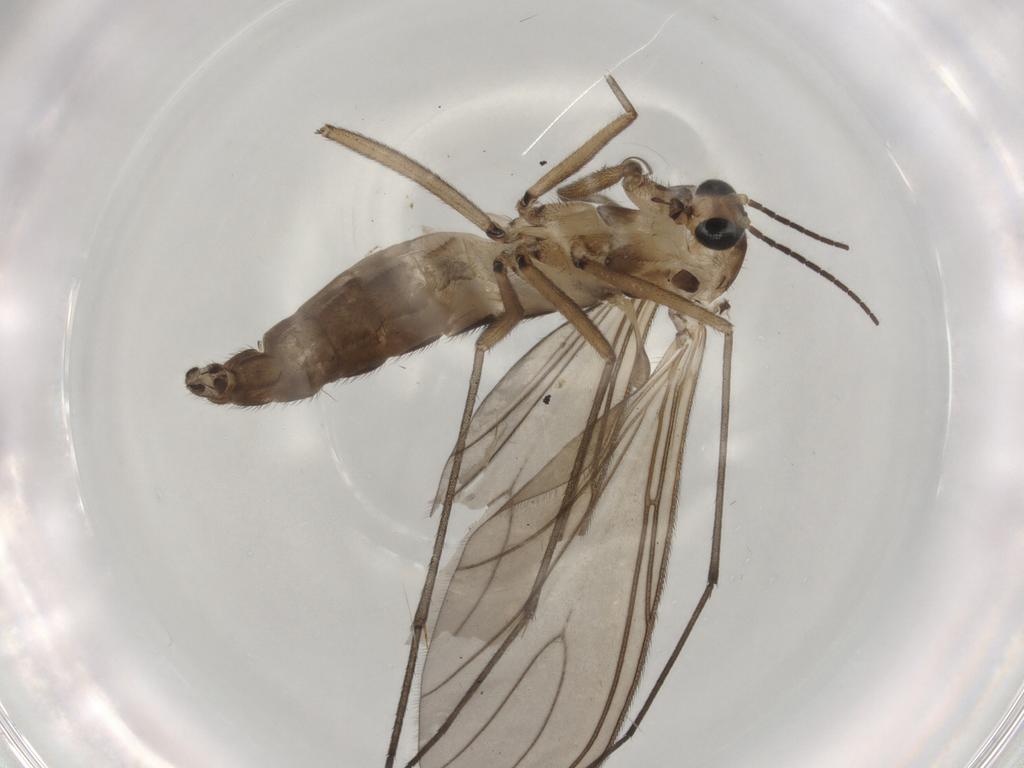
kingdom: Animalia
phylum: Arthropoda
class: Insecta
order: Diptera
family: Sciaridae
